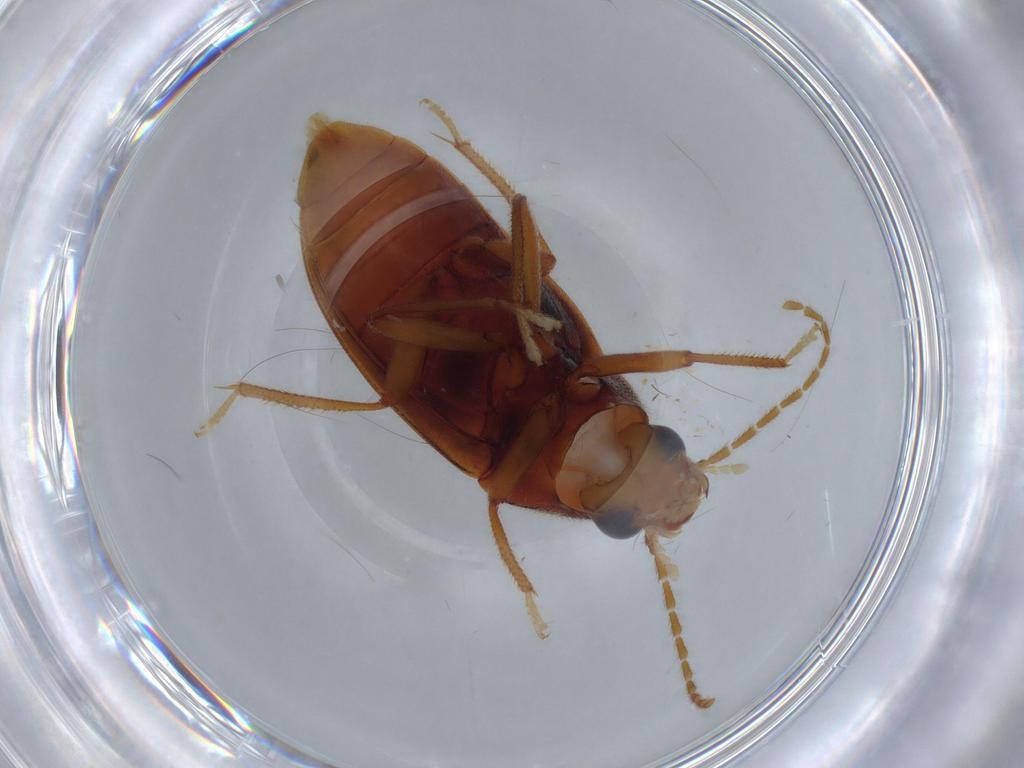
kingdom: Animalia
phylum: Arthropoda
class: Insecta
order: Coleoptera
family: Ptilodactylidae
